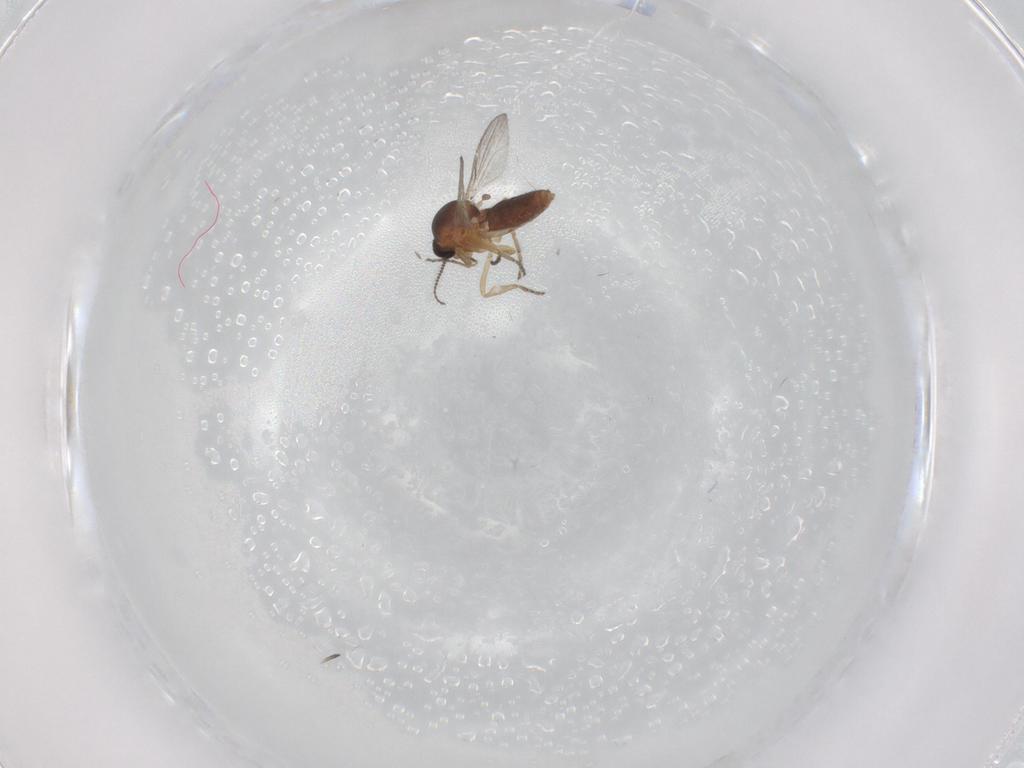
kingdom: Animalia
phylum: Arthropoda
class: Insecta
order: Diptera
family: Ceratopogonidae
